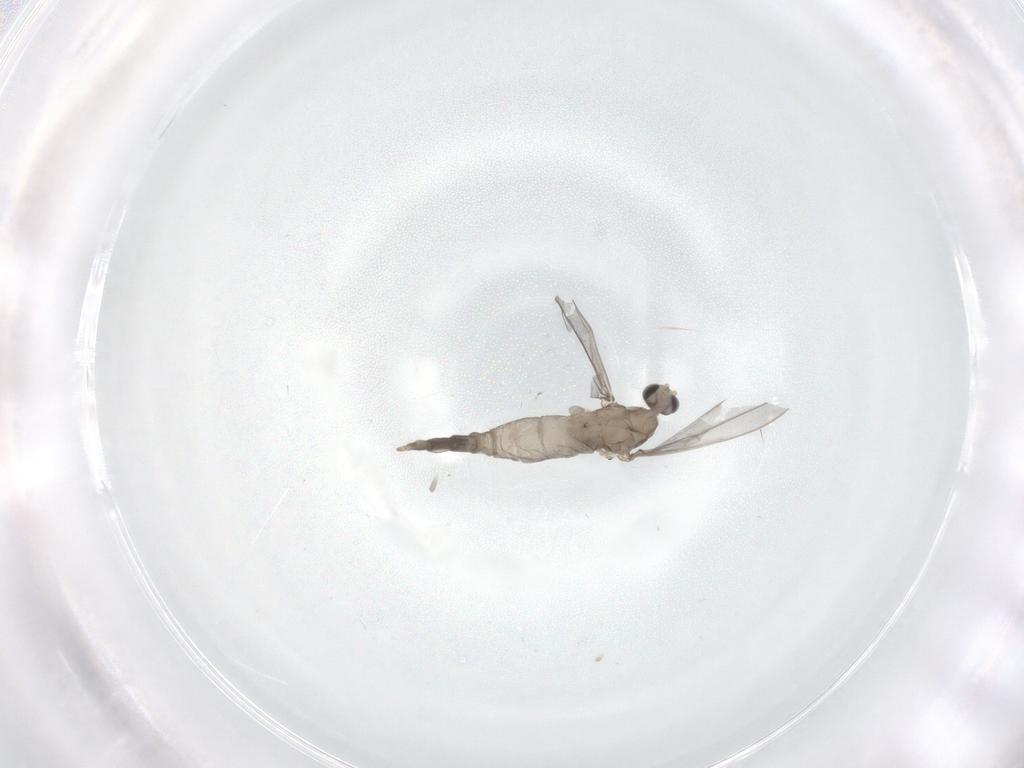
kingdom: Animalia
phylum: Arthropoda
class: Insecta
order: Diptera
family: Cecidomyiidae
